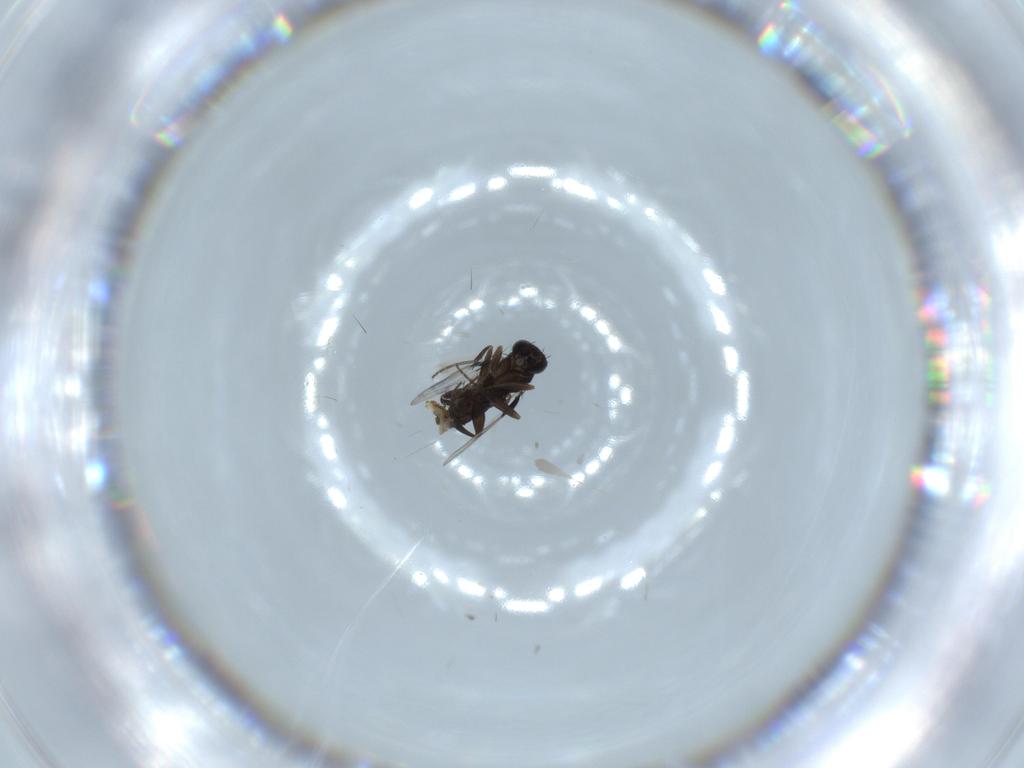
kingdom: Animalia
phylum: Arthropoda
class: Insecta
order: Diptera
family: Phoridae
